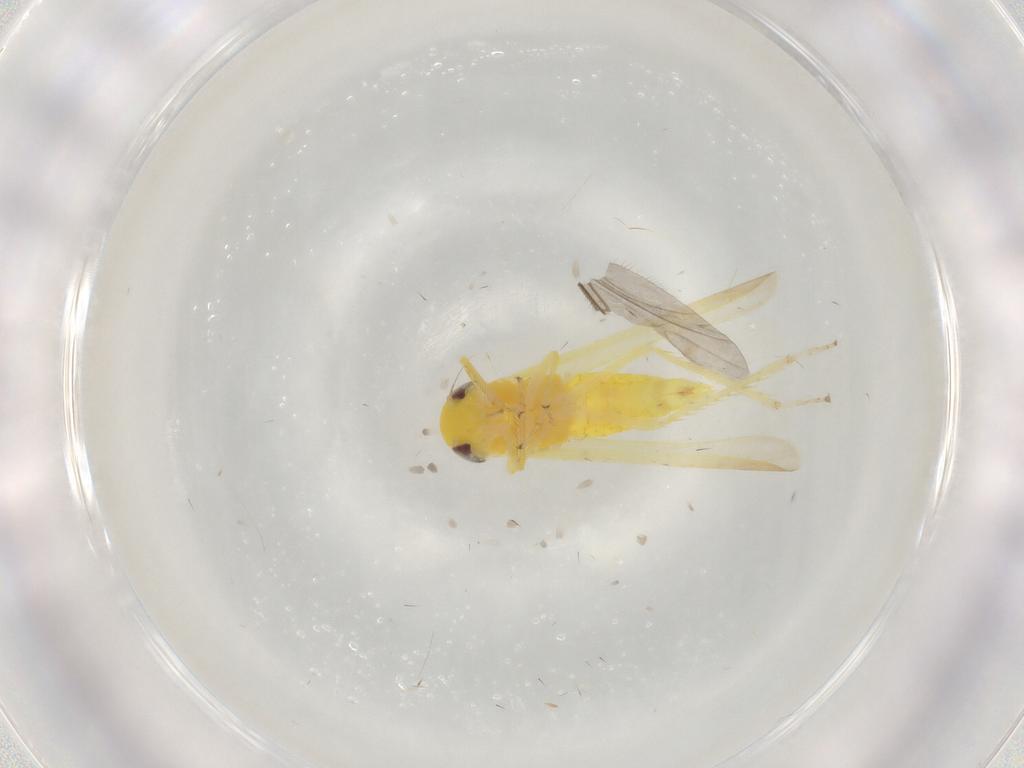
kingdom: Animalia
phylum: Arthropoda
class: Insecta
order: Hemiptera
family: Cicadellidae
